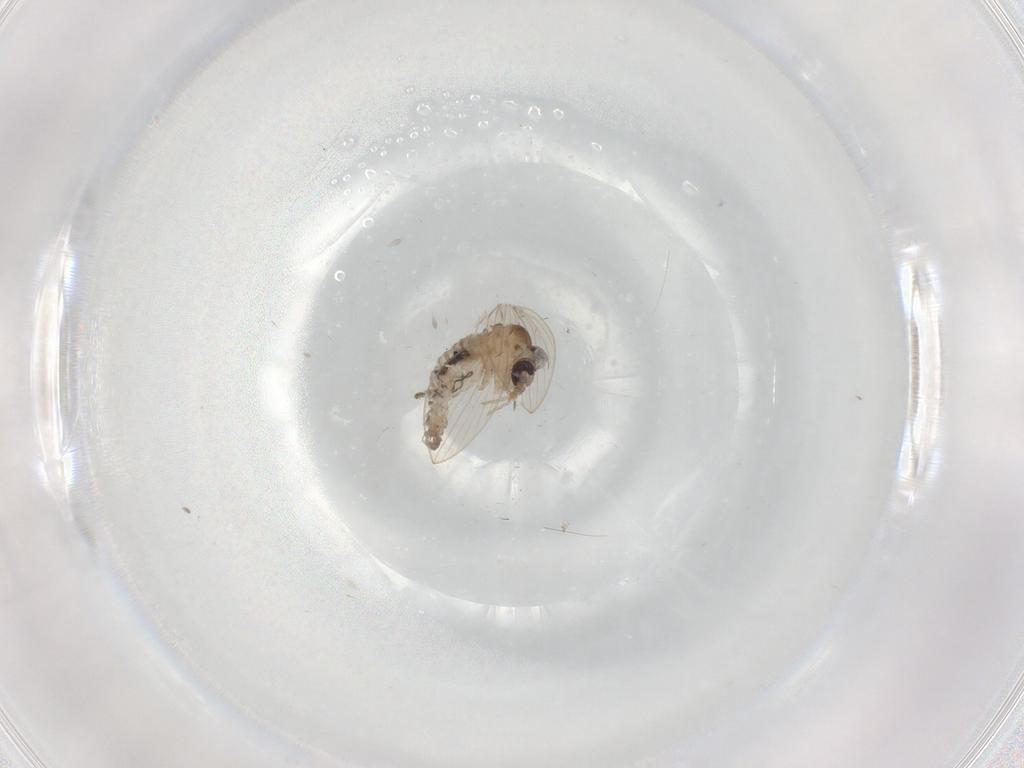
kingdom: Animalia
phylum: Arthropoda
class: Insecta
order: Diptera
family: Psychodidae
